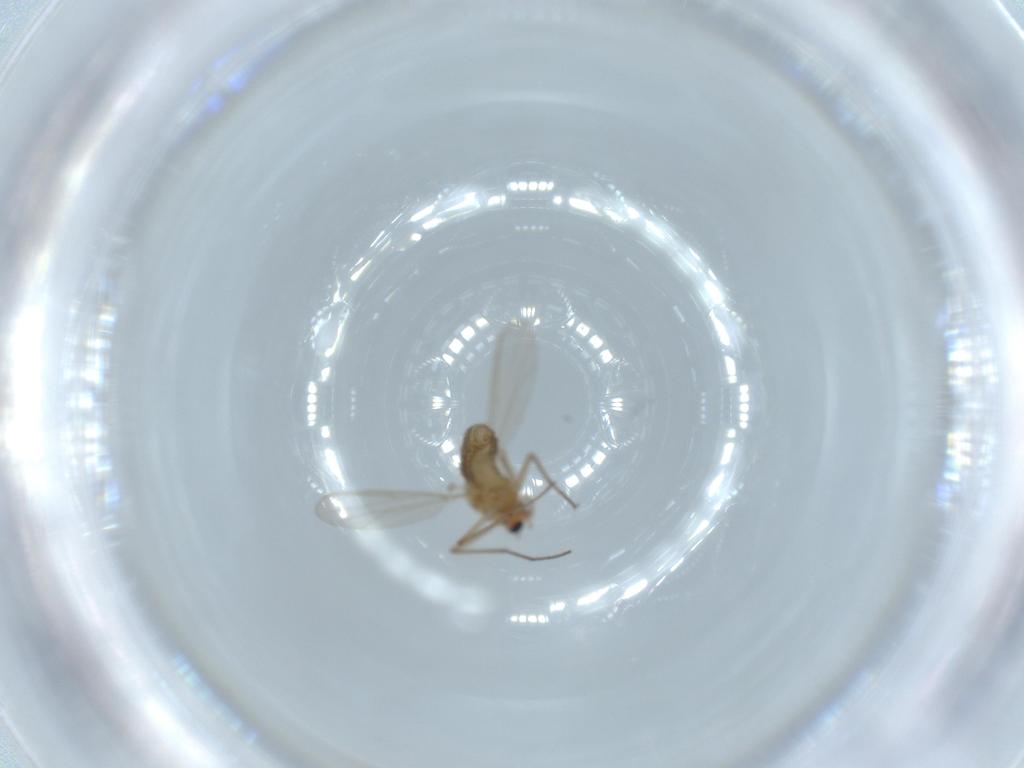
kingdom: Animalia
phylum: Arthropoda
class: Insecta
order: Diptera
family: Chironomidae
